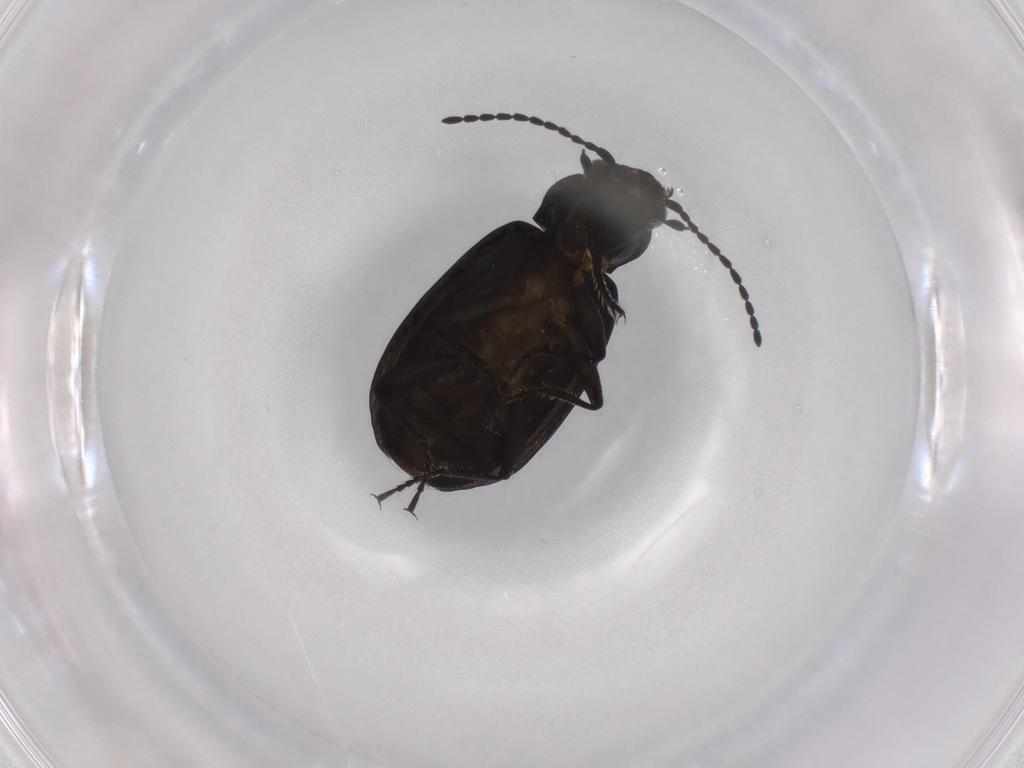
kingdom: Animalia
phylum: Arthropoda
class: Insecta
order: Coleoptera
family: Carabidae
